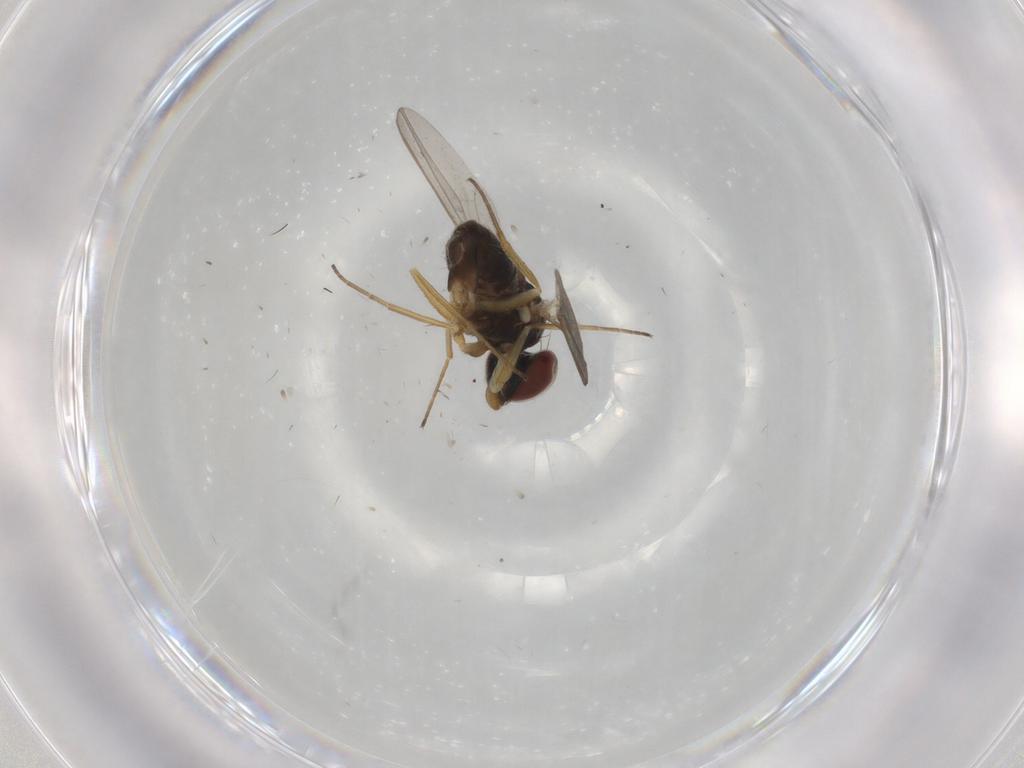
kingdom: Animalia
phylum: Arthropoda
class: Insecta
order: Diptera
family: Dolichopodidae
